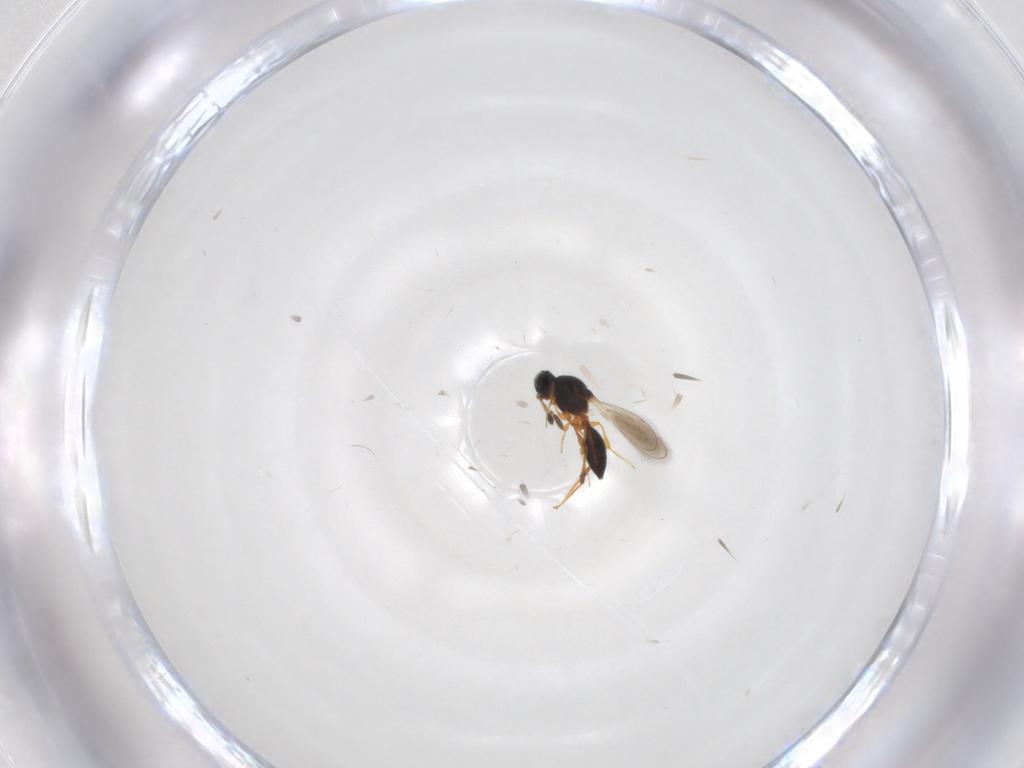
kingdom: Animalia
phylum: Arthropoda
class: Insecta
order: Hymenoptera
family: Platygastridae
